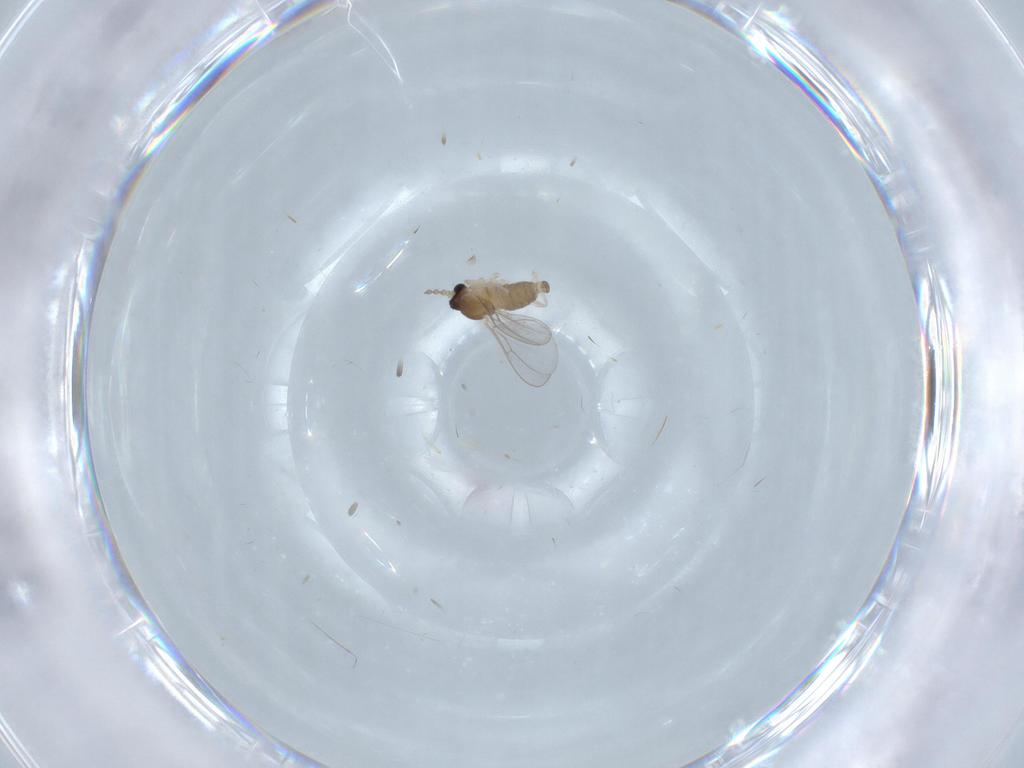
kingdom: Animalia
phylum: Arthropoda
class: Insecta
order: Diptera
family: Cecidomyiidae
